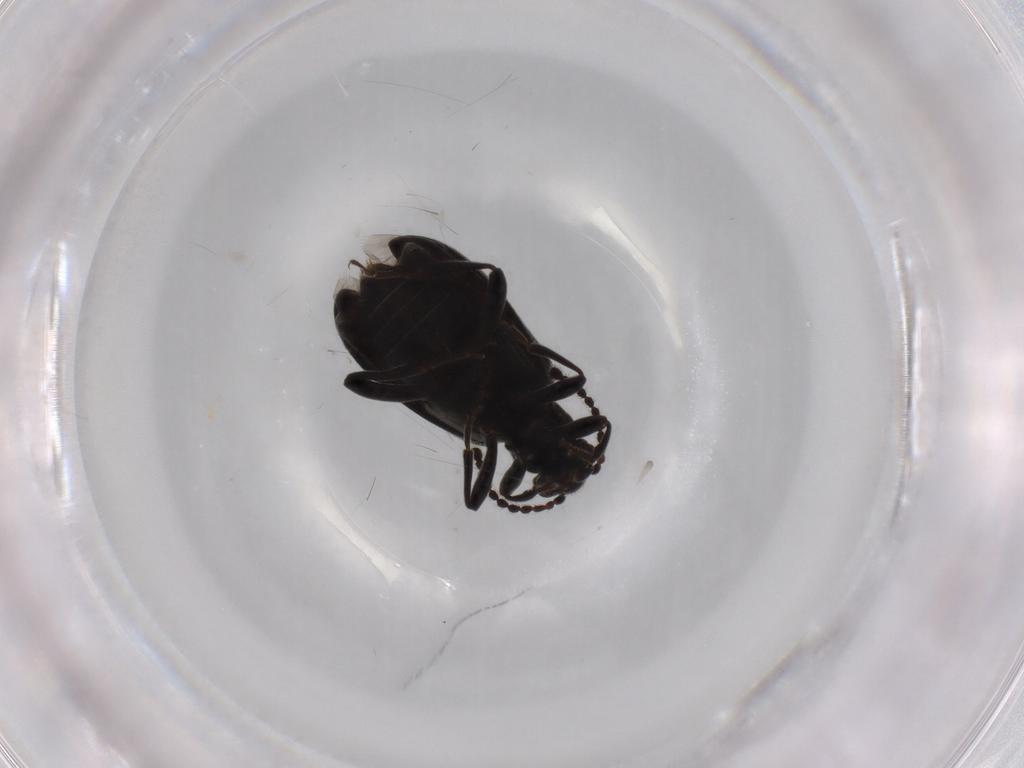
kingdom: Animalia
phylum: Arthropoda
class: Insecta
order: Coleoptera
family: Aderidae
